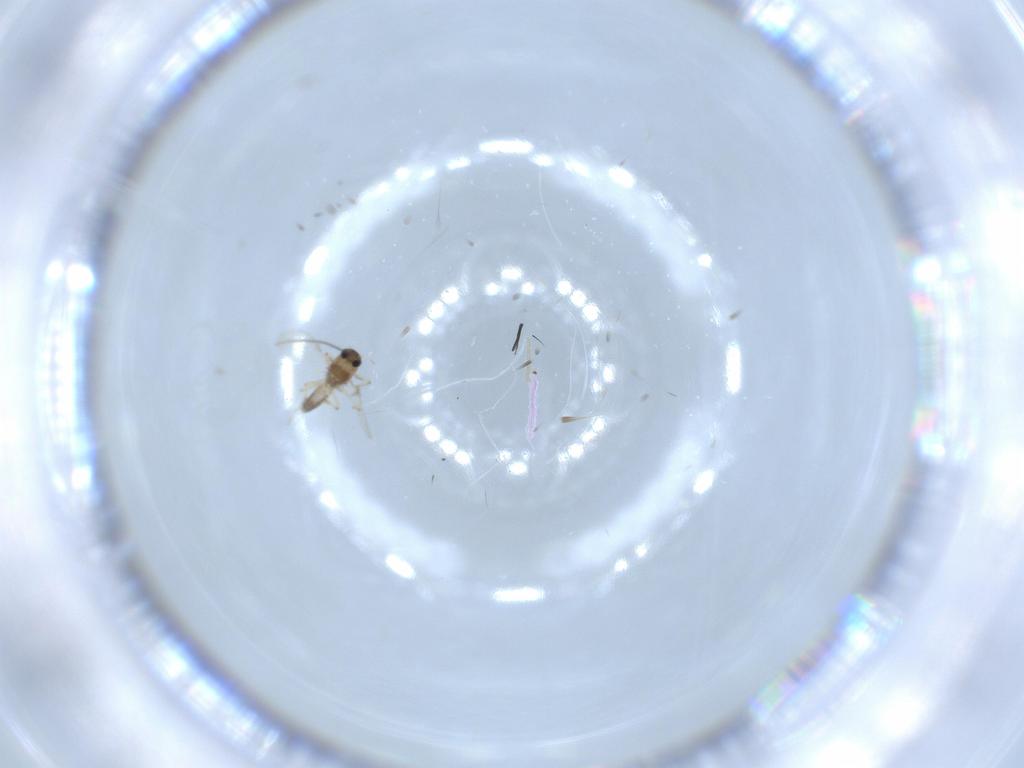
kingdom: Animalia
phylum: Arthropoda
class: Insecta
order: Diptera
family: Chironomidae
